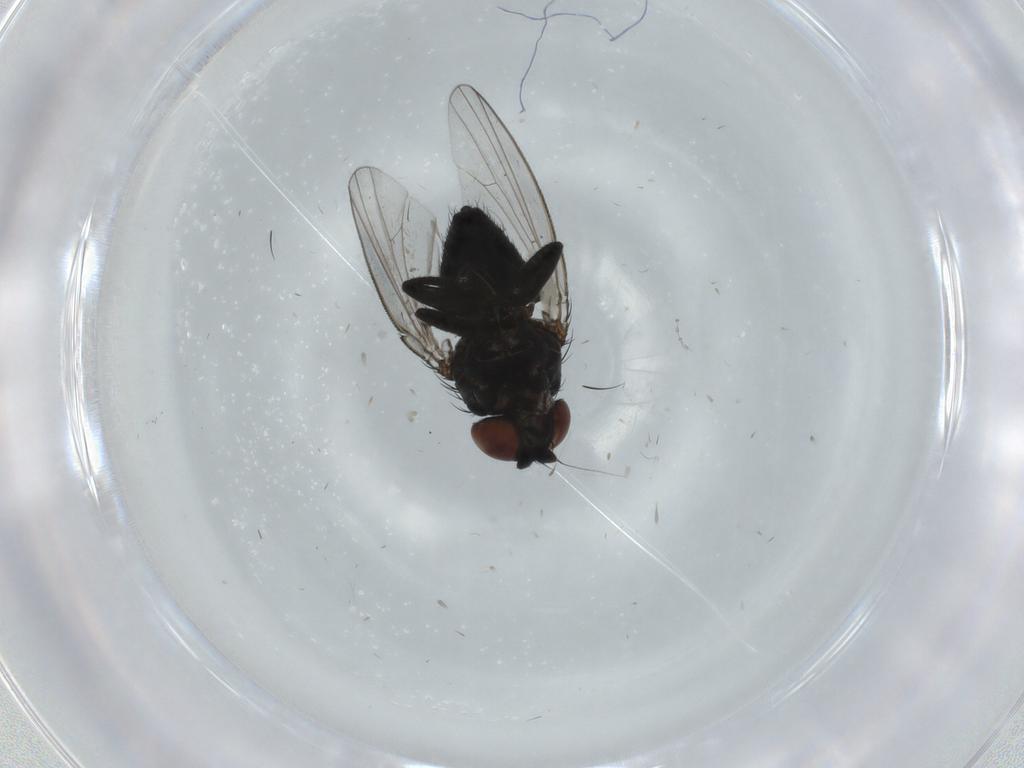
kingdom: Animalia
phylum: Arthropoda
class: Insecta
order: Diptera
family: Milichiidae
